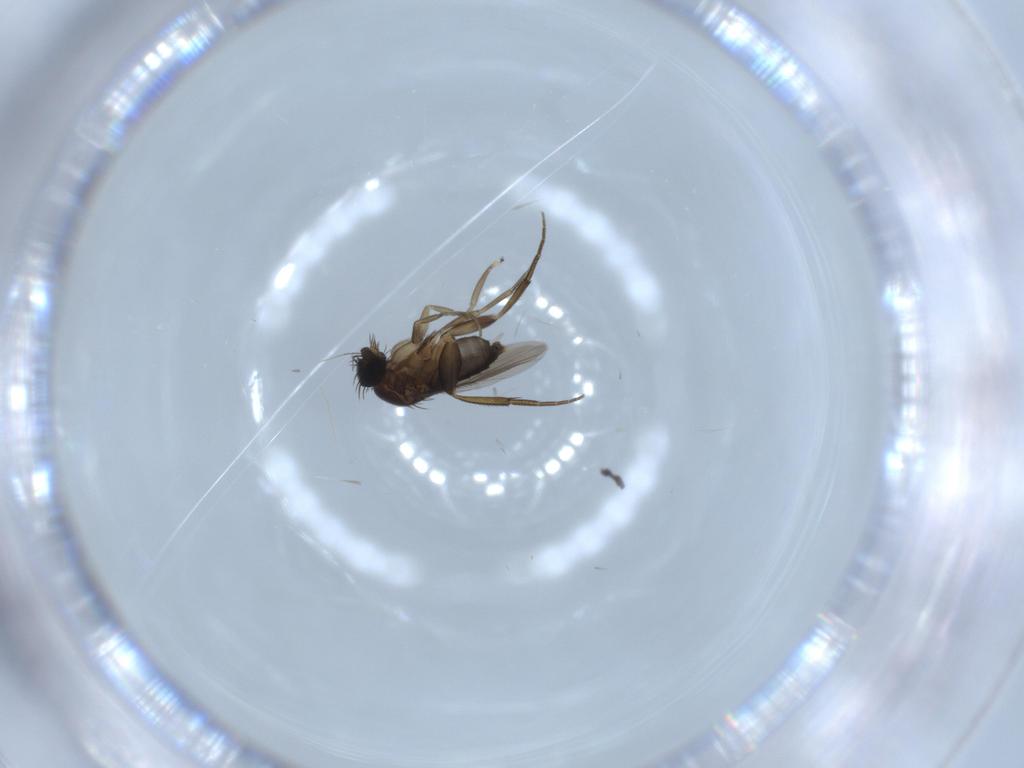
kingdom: Animalia
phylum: Arthropoda
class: Insecta
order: Diptera
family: Phoridae
